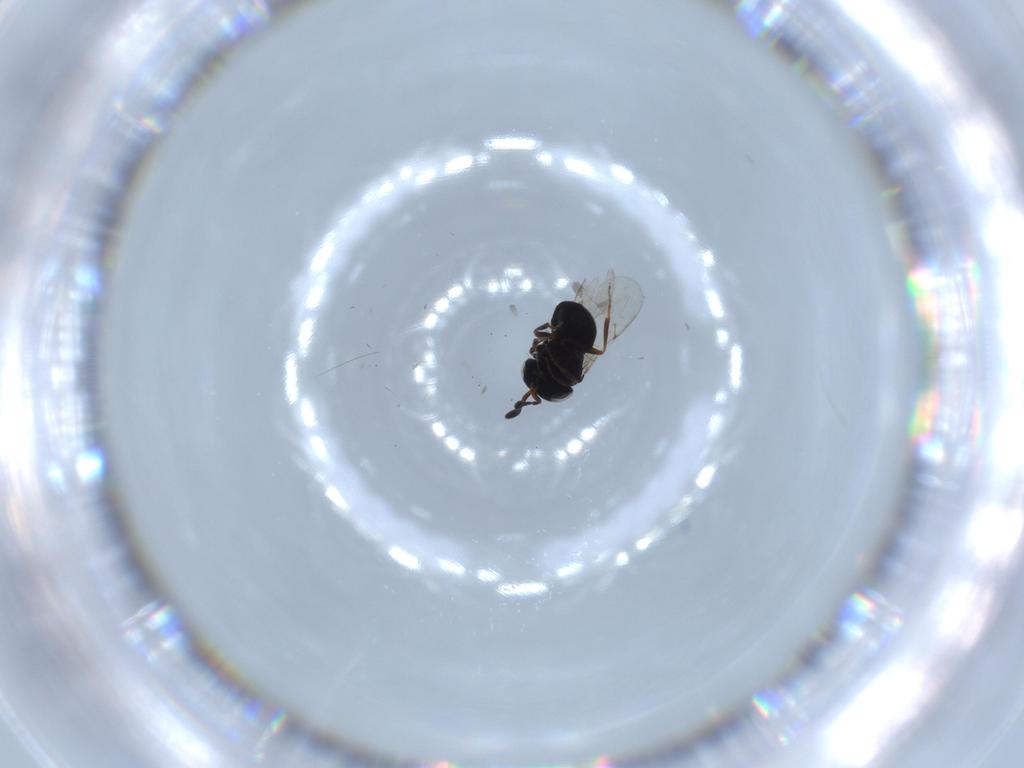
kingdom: Animalia
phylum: Arthropoda
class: Insecta
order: Hymenoptera
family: Scelionidae
